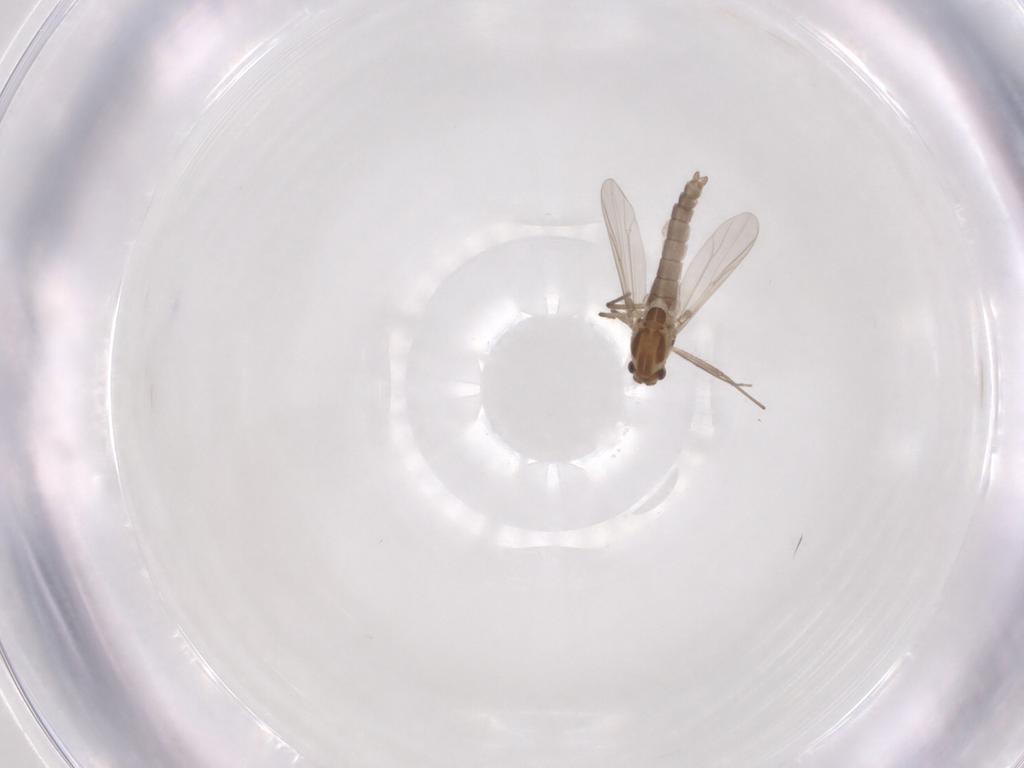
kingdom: Animalia
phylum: Arthropoda
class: Insecta
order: Diptera
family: Chironomidae
